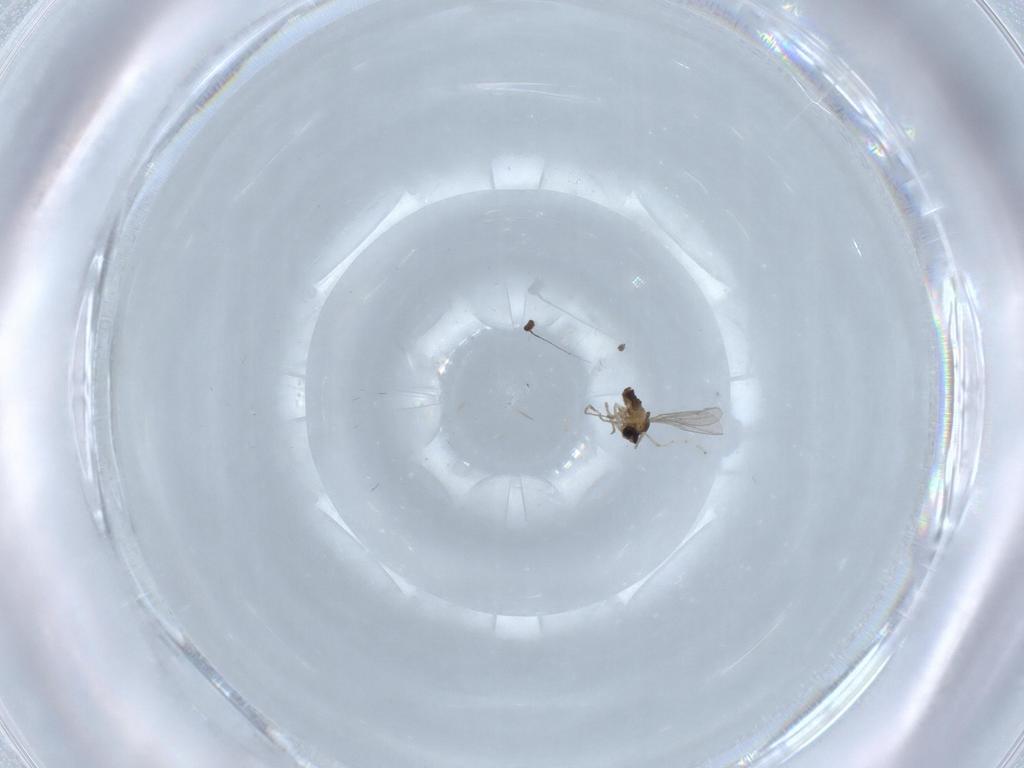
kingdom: Animalia
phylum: Arthropoda
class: Insecta
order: Diptera
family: Cecidomyiidae
